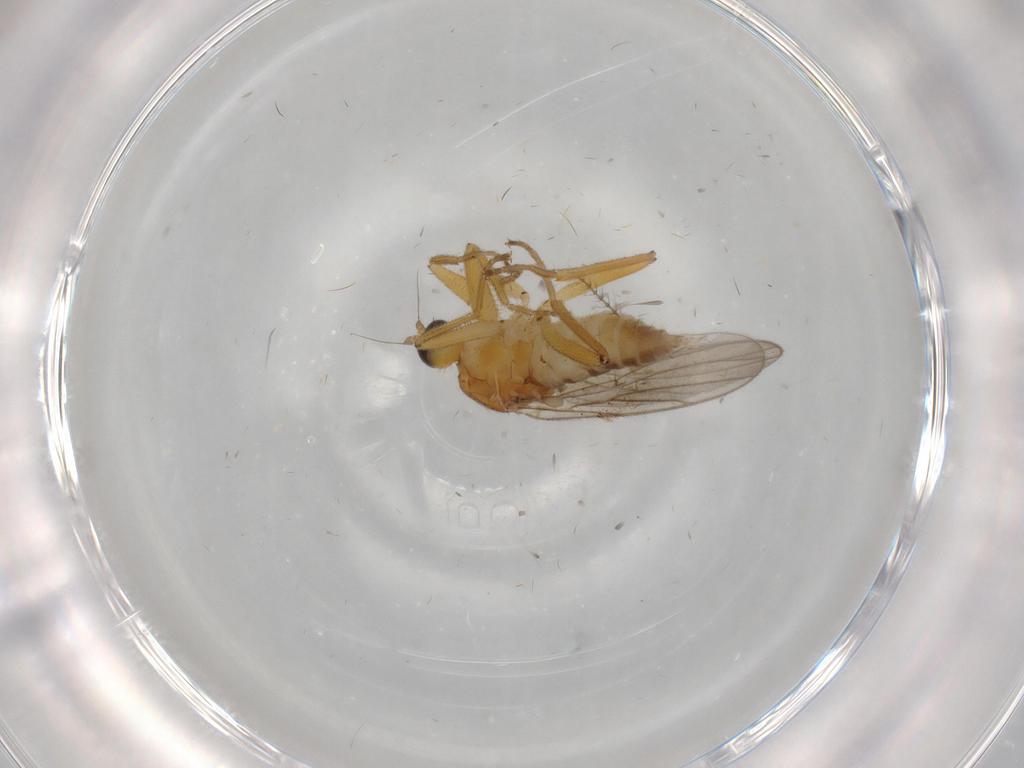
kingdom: Animalia
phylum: Arthropoda
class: Insecta
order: Diptera
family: Hybotidae
